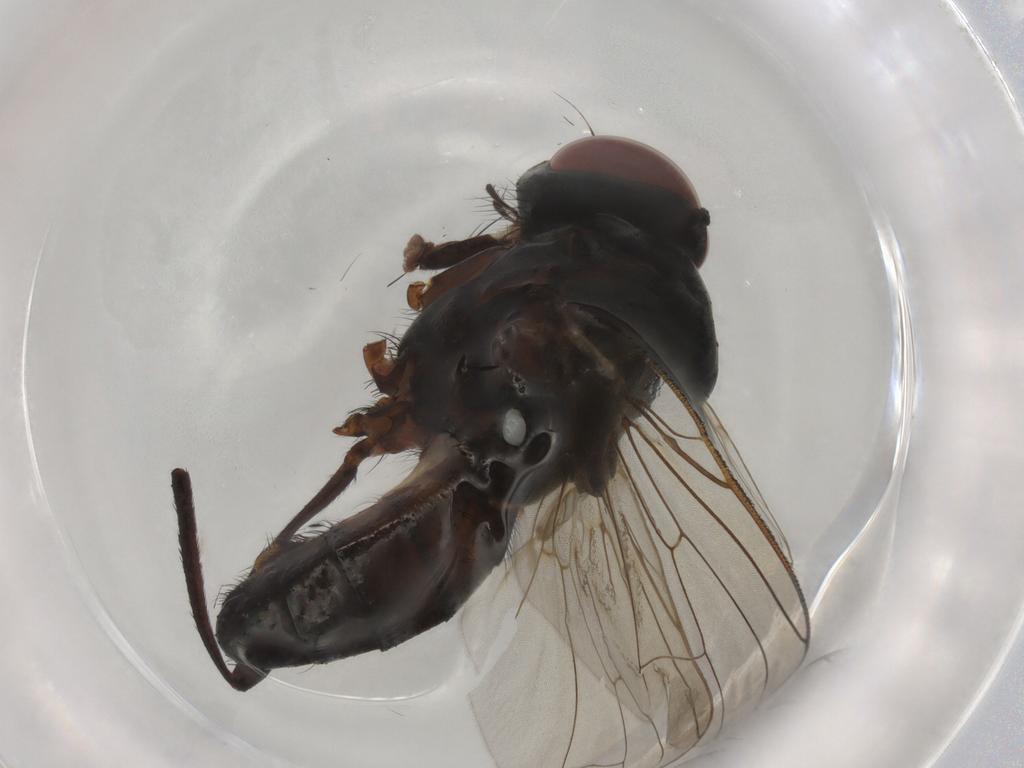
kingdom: Animalia
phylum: Arthropoda
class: Insecta
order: Diptera
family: Anthomyiidae
